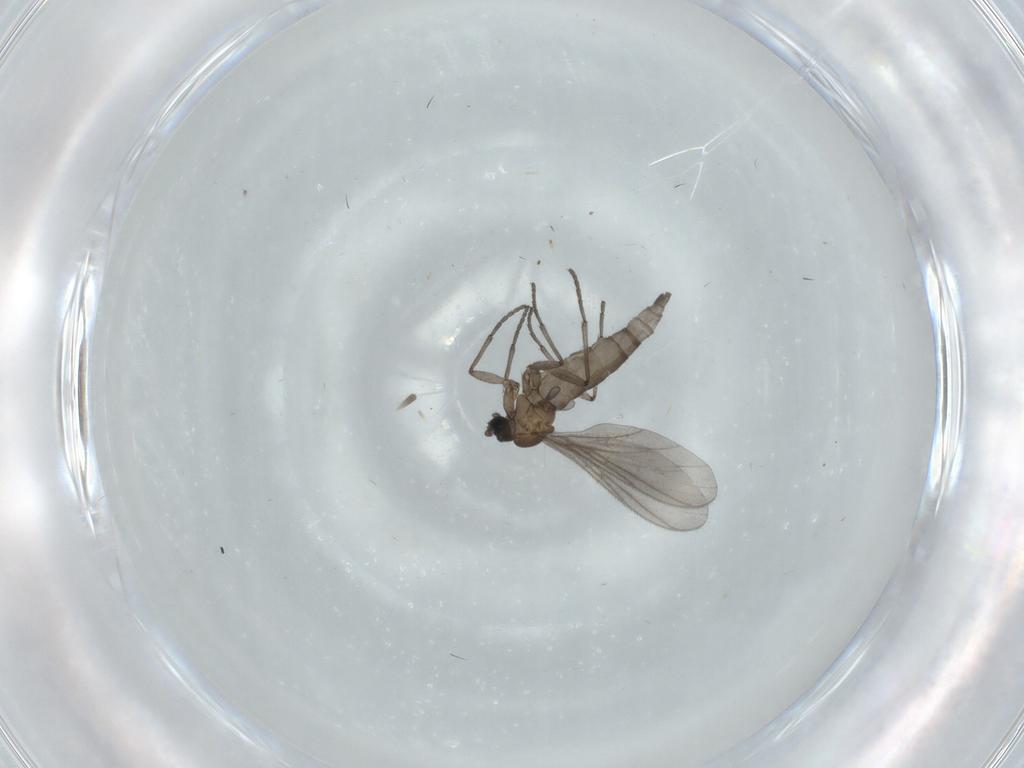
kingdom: Animalia
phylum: Arthropoda
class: Insecta
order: Diptera
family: Sciaridae
